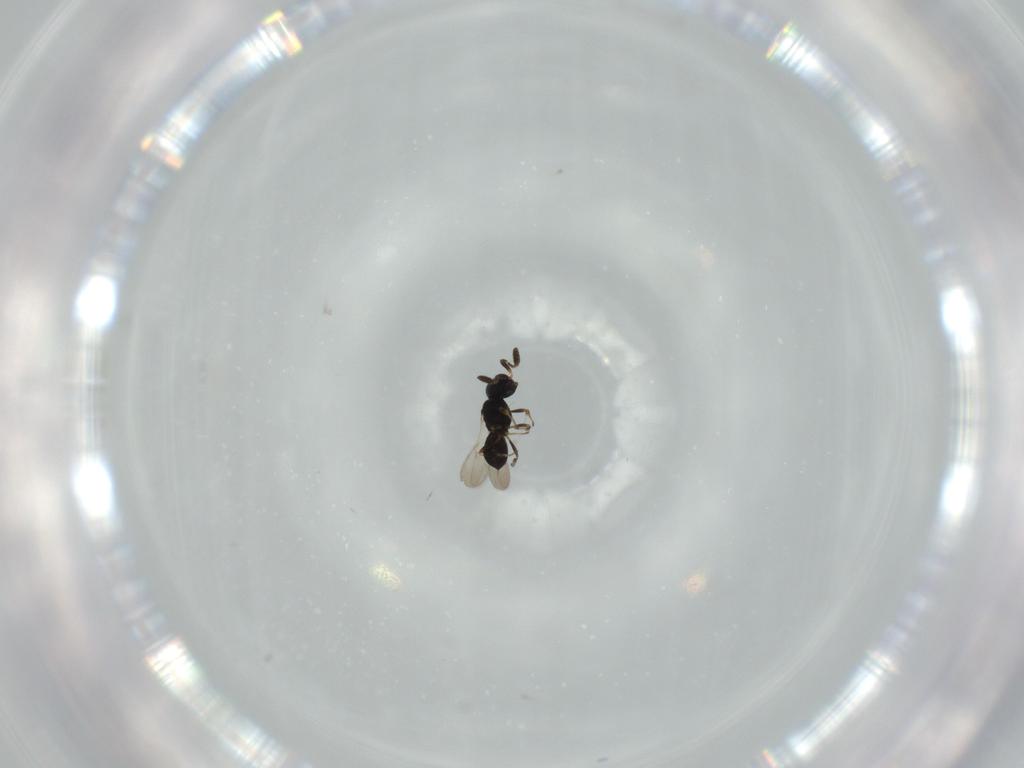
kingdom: Animalia
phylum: Arthropoda
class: Insecta
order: Hymenoptera
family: Scelionidae
